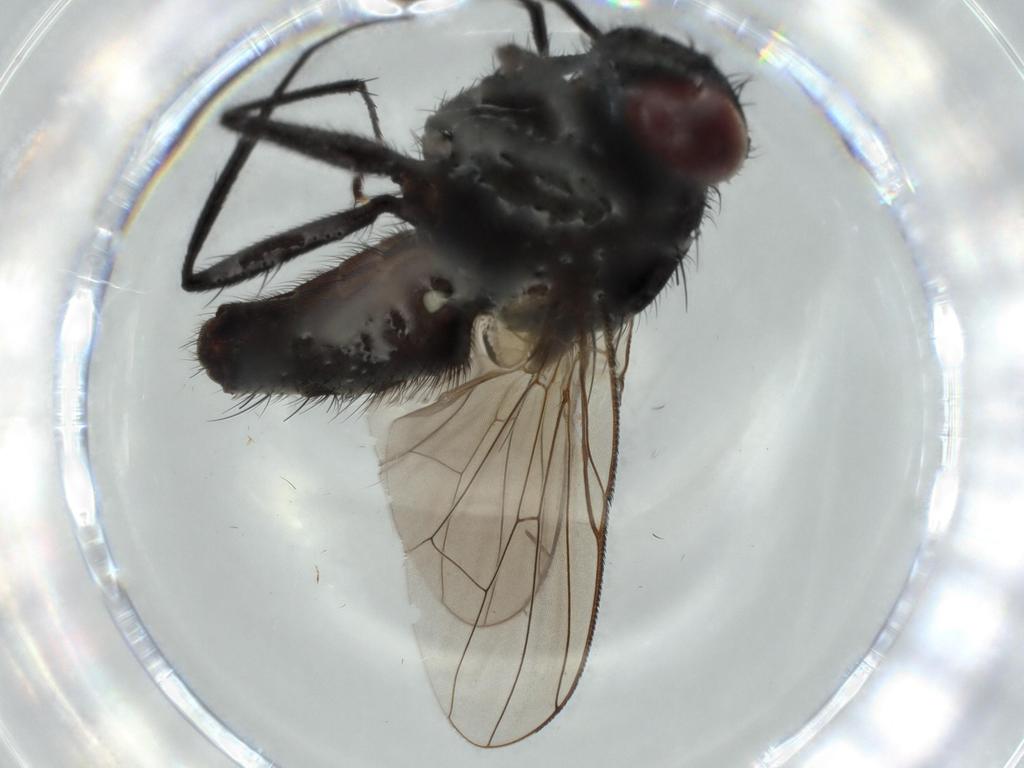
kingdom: Animalia
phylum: Arthropoda
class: Insecta
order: Diptera
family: Ceratopogonidae
